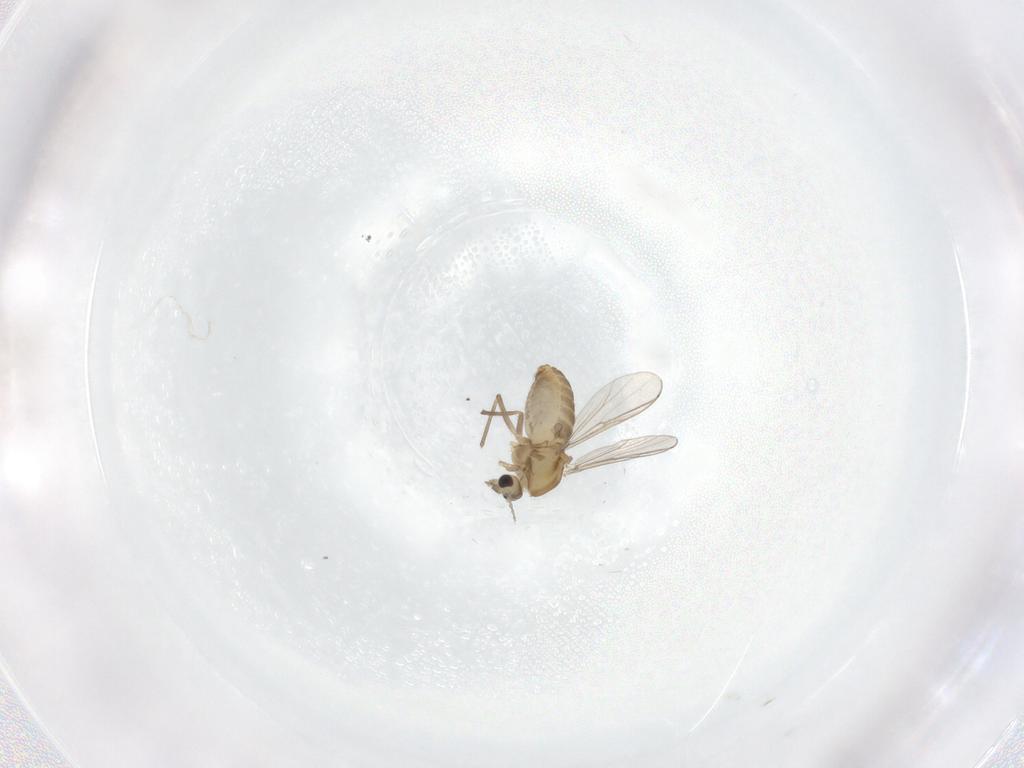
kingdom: Animalia
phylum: Arthropoda
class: Insecta
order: Diptera
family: Chironomidae
